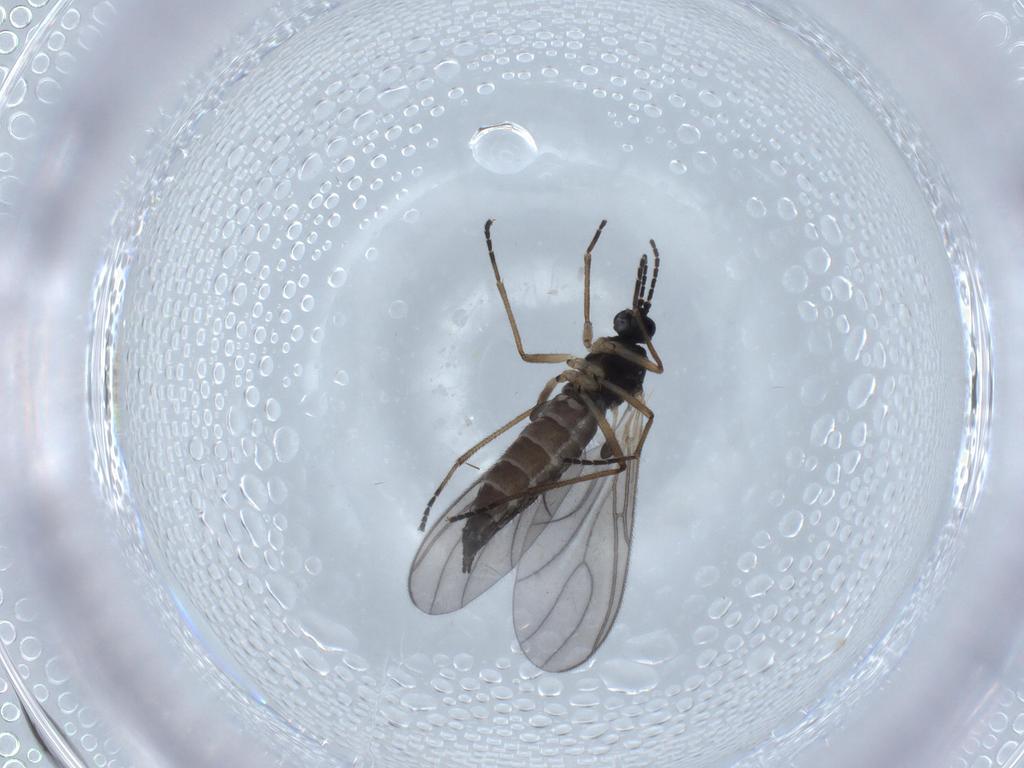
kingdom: Animalia
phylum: Arthropoda
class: Insecta
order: Diptera
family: Sciaridae
